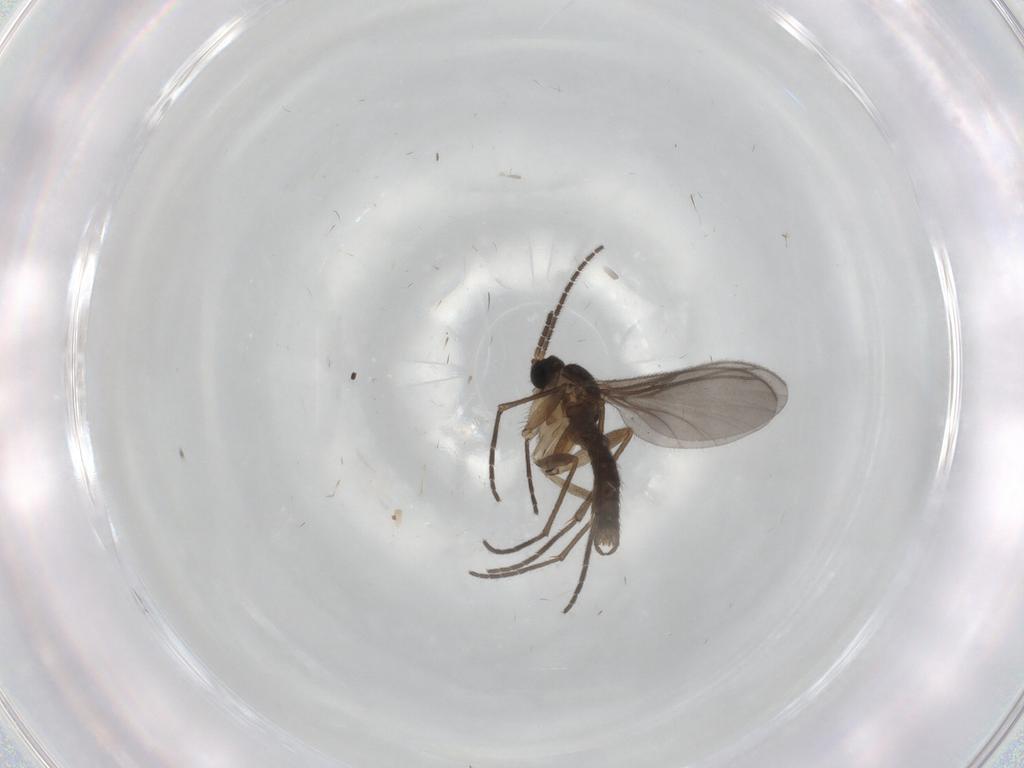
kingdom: Animalia
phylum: Arthropoda
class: Insecta
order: Diptera
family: Sciaridae
